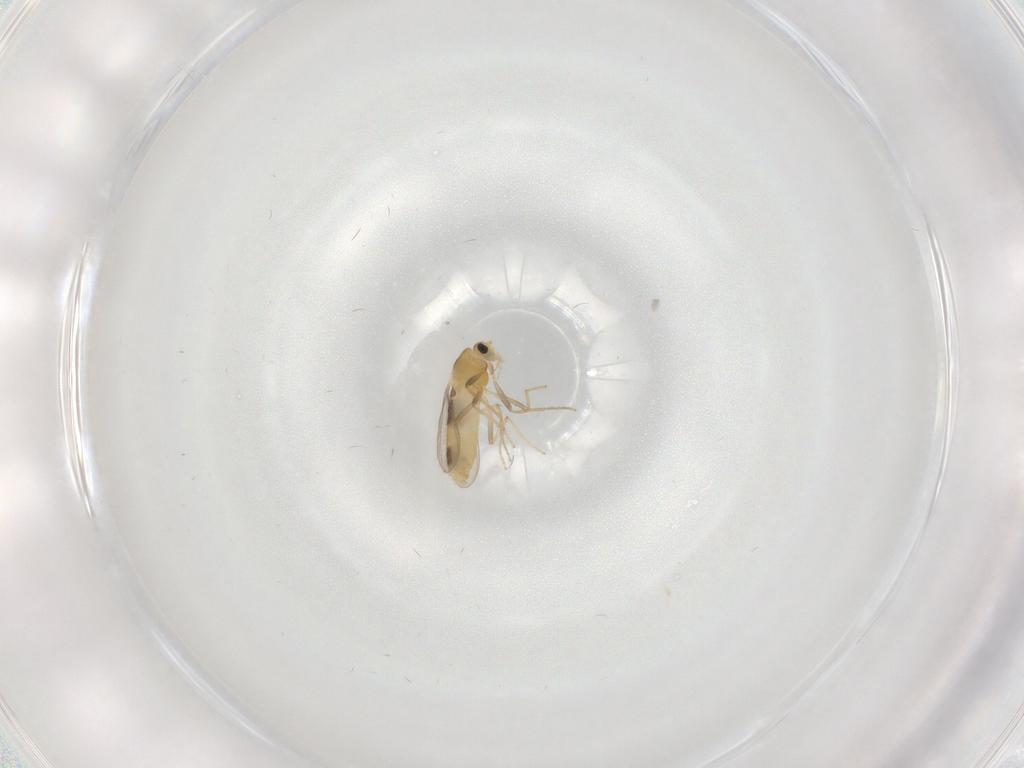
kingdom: Animalia
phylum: Arthropoda
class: Insecta
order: Diptera
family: Chironomidae
